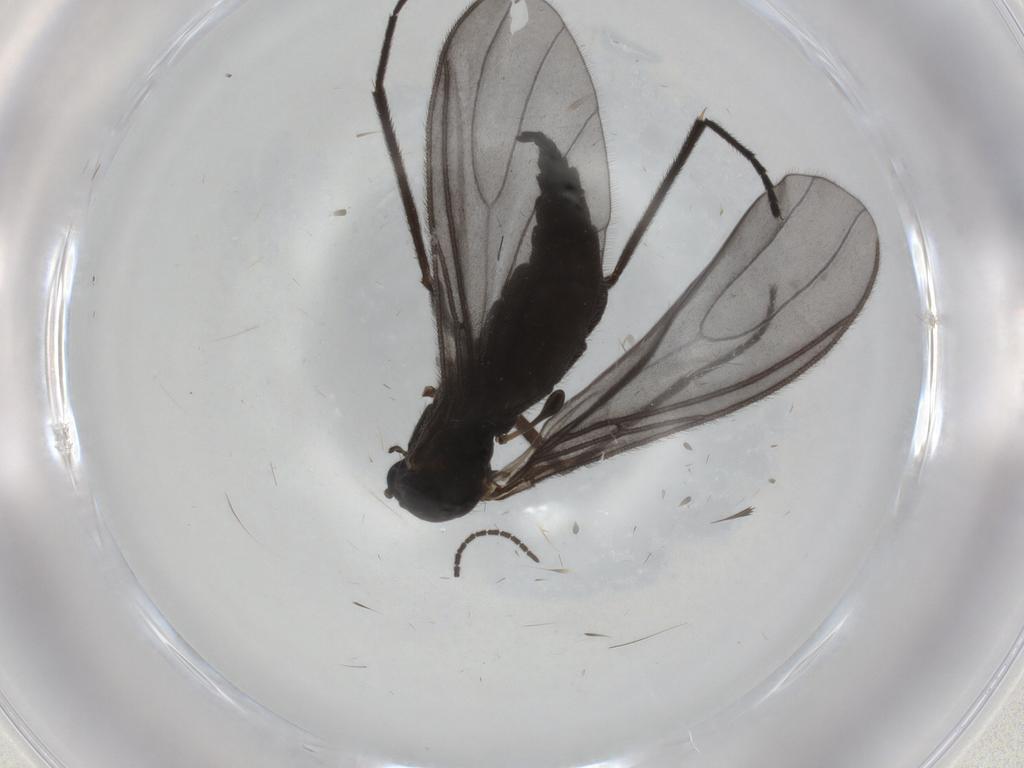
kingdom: Animalia
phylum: Arthropoda
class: Insecta
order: Diptera
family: Sciaridae
